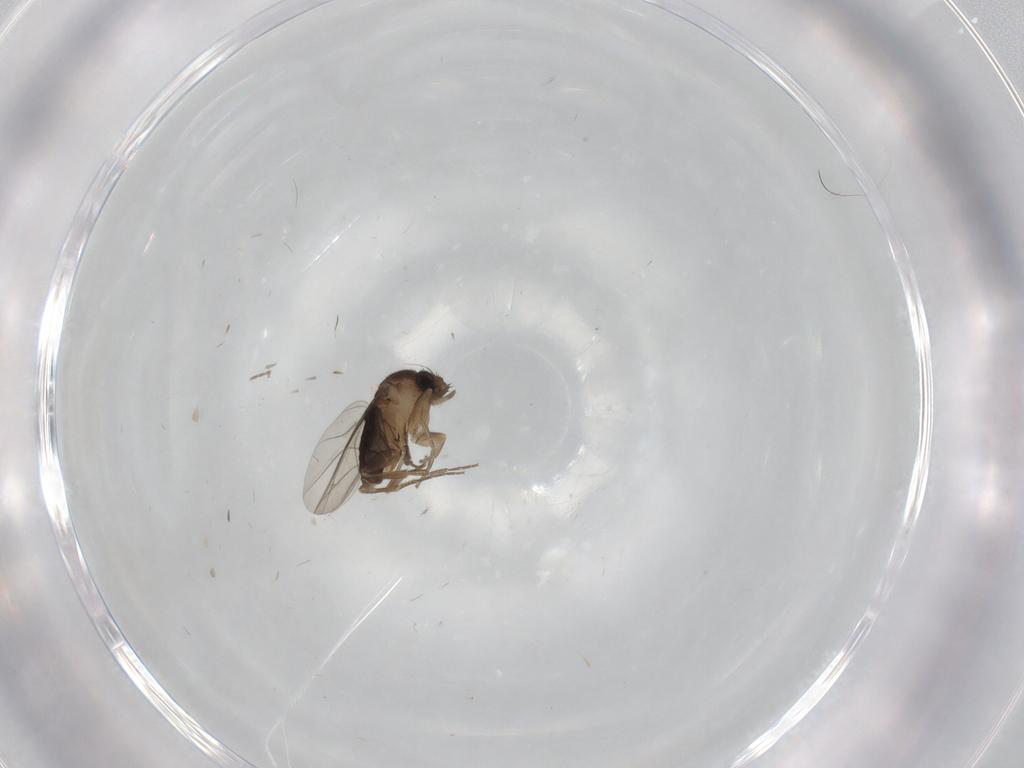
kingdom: Animalia
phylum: Arthropoda
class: Insecta
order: Diptera
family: Cecidomyiidae
